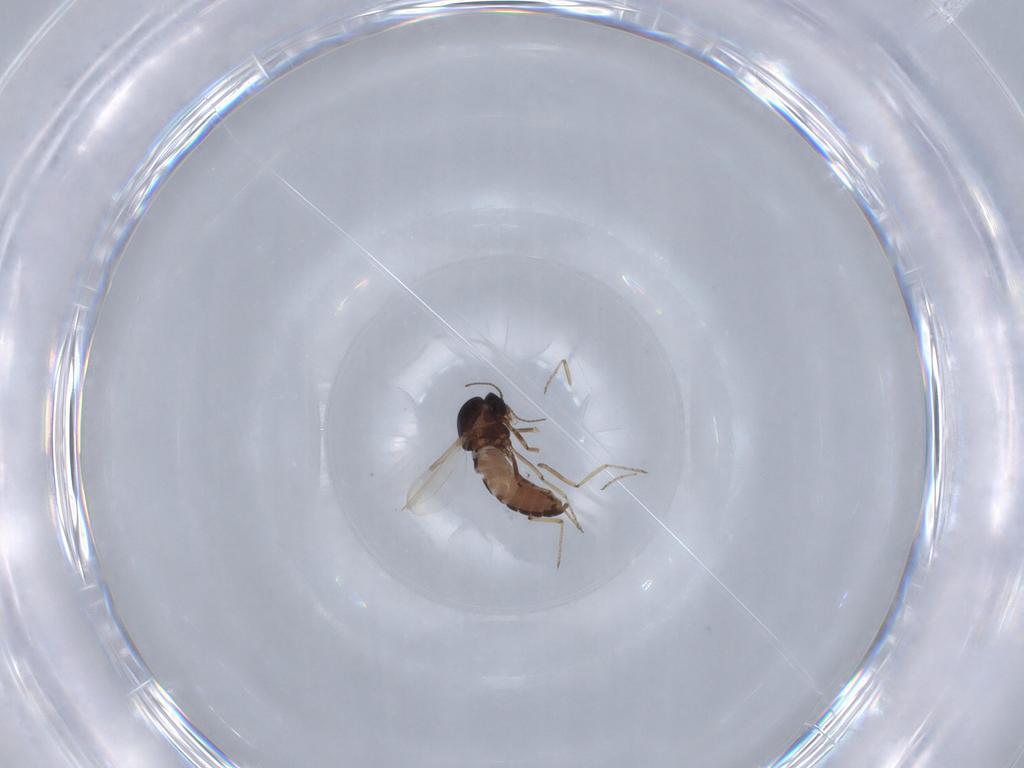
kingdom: Animalia
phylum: Arthropoda
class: Insecta
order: Diptera
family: Ceratopogonidae
